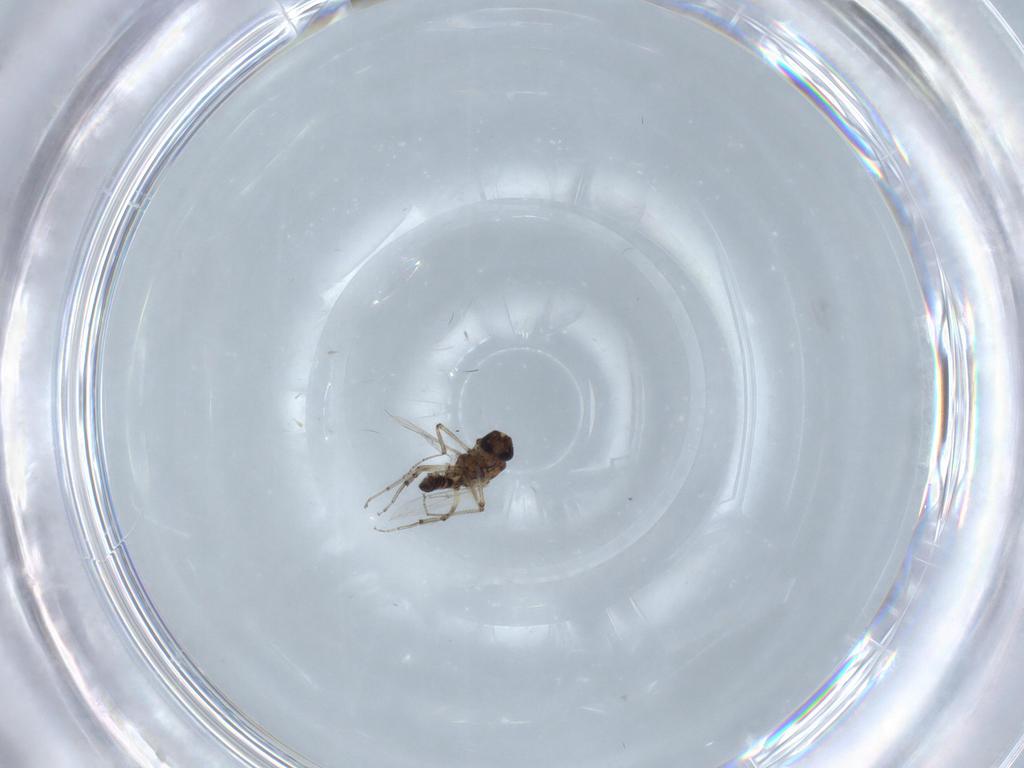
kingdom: Animalia
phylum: Arthropoda
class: Insecta
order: Diptera
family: Ceratopogonidae
